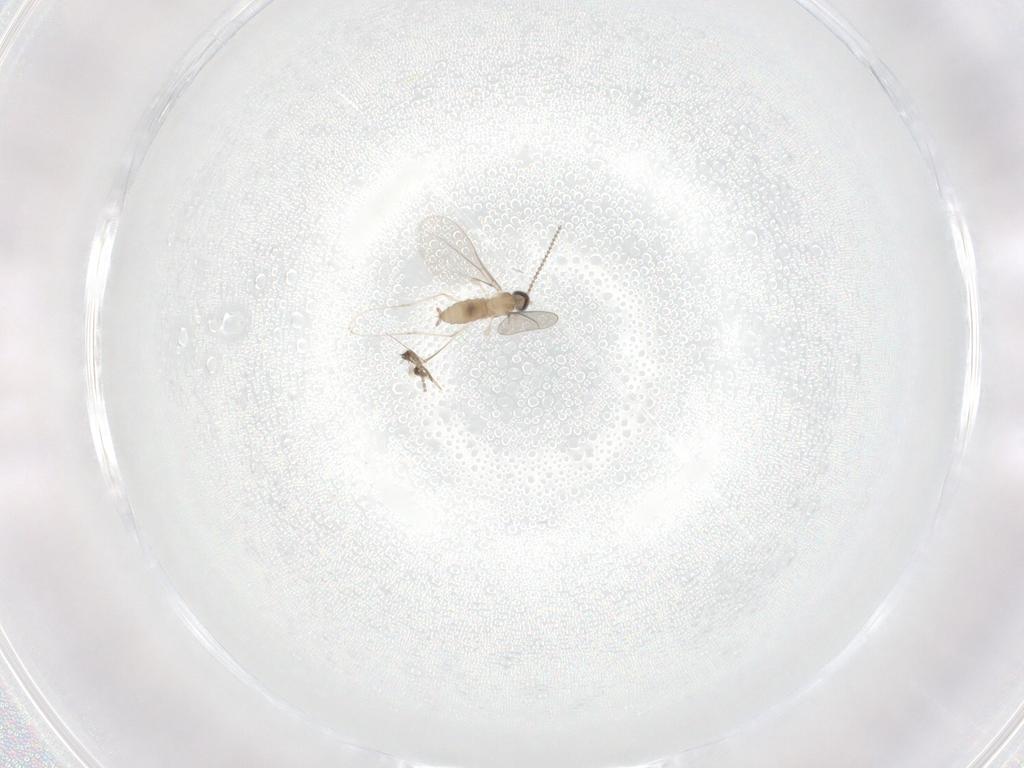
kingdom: Animalia
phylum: Arthropoda
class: Insecta
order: Diptera
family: Cecidomyiidae
